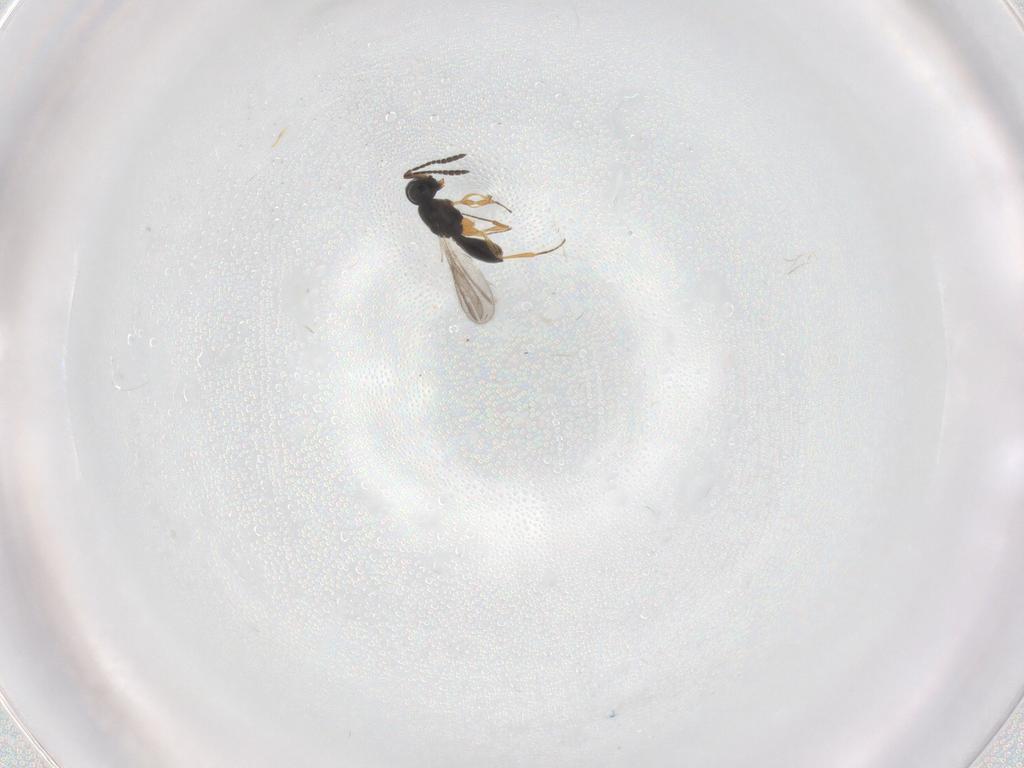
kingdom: Animalia
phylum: Arthropoda
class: Insecta
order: Hymenoptera
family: Scelionidae
